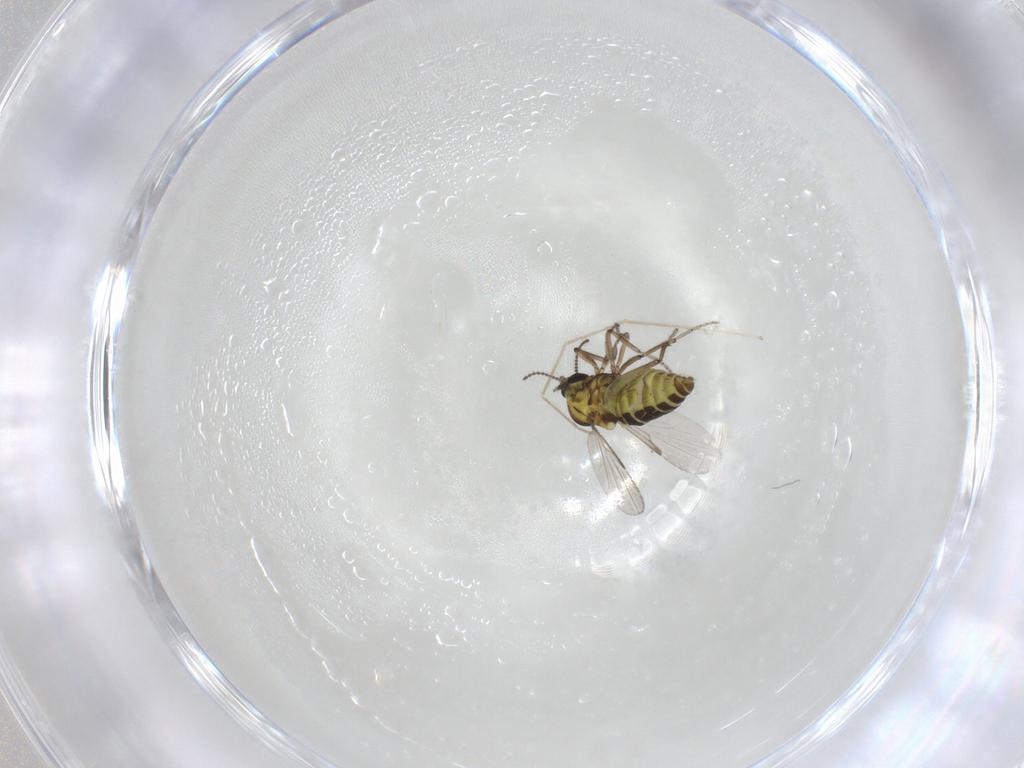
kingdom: Animalia
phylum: Arthropoda
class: Insecta
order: Diptera
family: Ceratopogonidae
